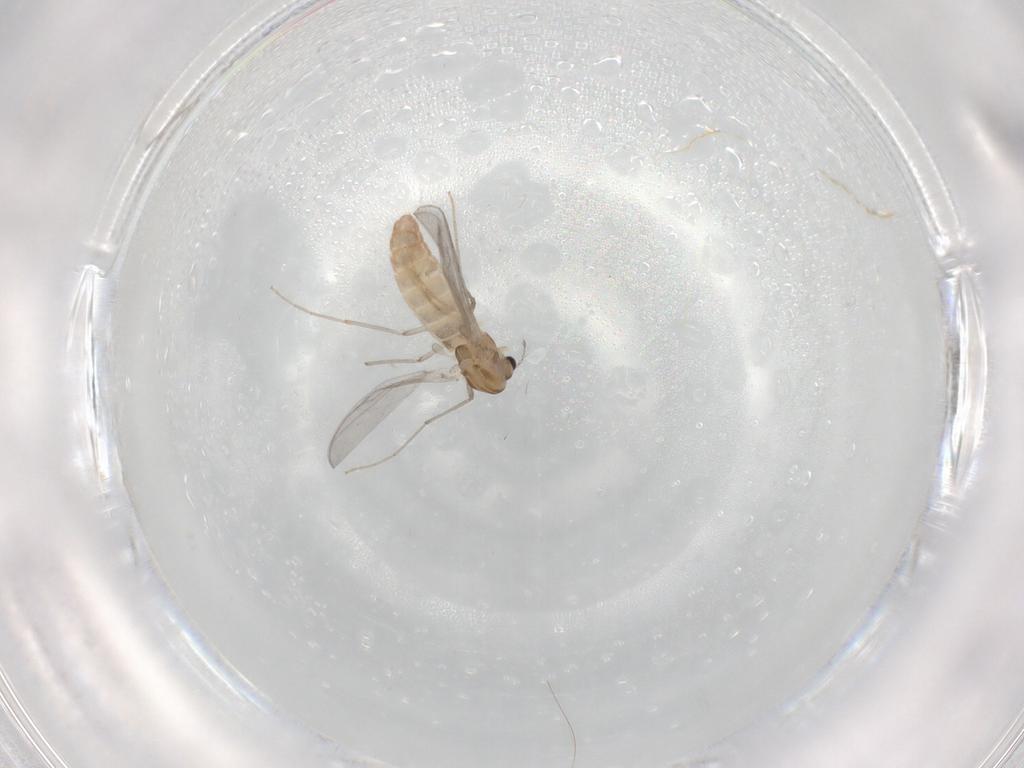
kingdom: Animalia
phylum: Arthropoda
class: Insecta
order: Diptera
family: Chironomidae
